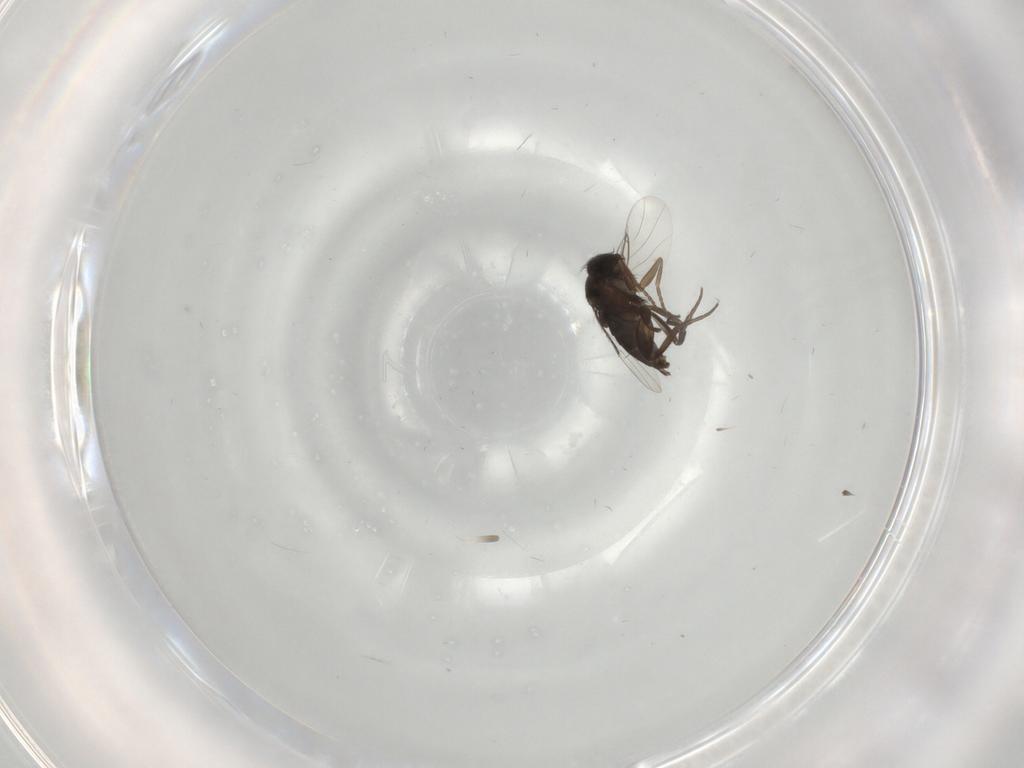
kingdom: Animalia
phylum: Arthropoda
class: Insecta
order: Diptera
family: Phoridae
